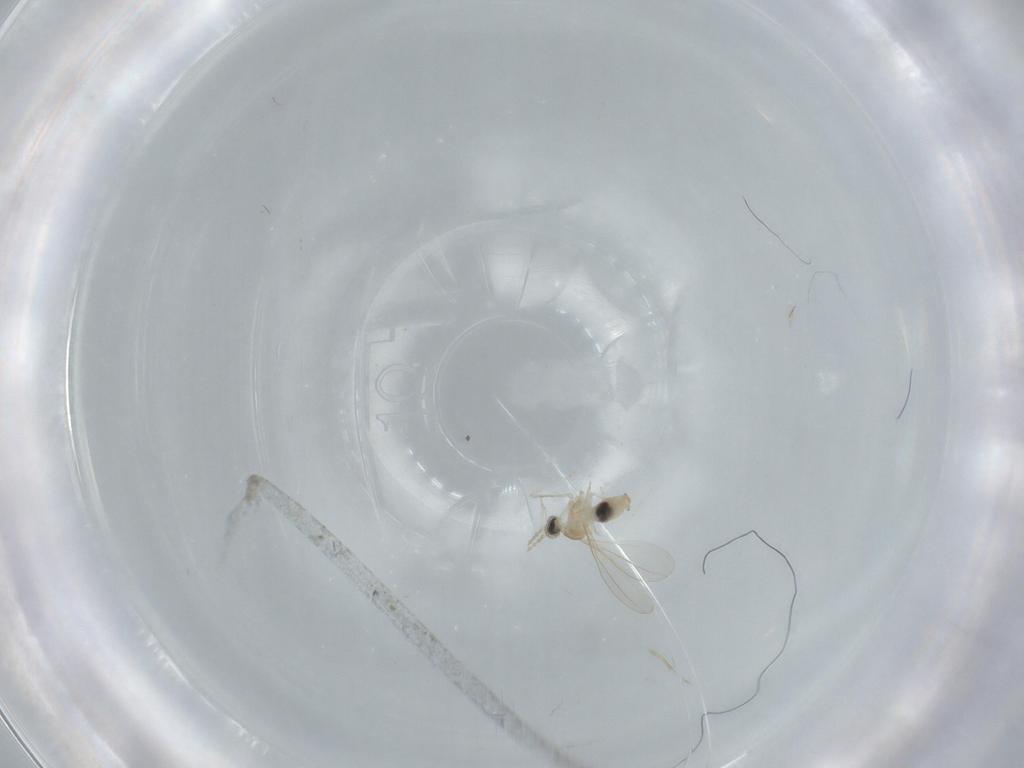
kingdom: Animalia
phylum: Arthropoda
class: Insecta
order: Diptera
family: Cecidomyiidae
